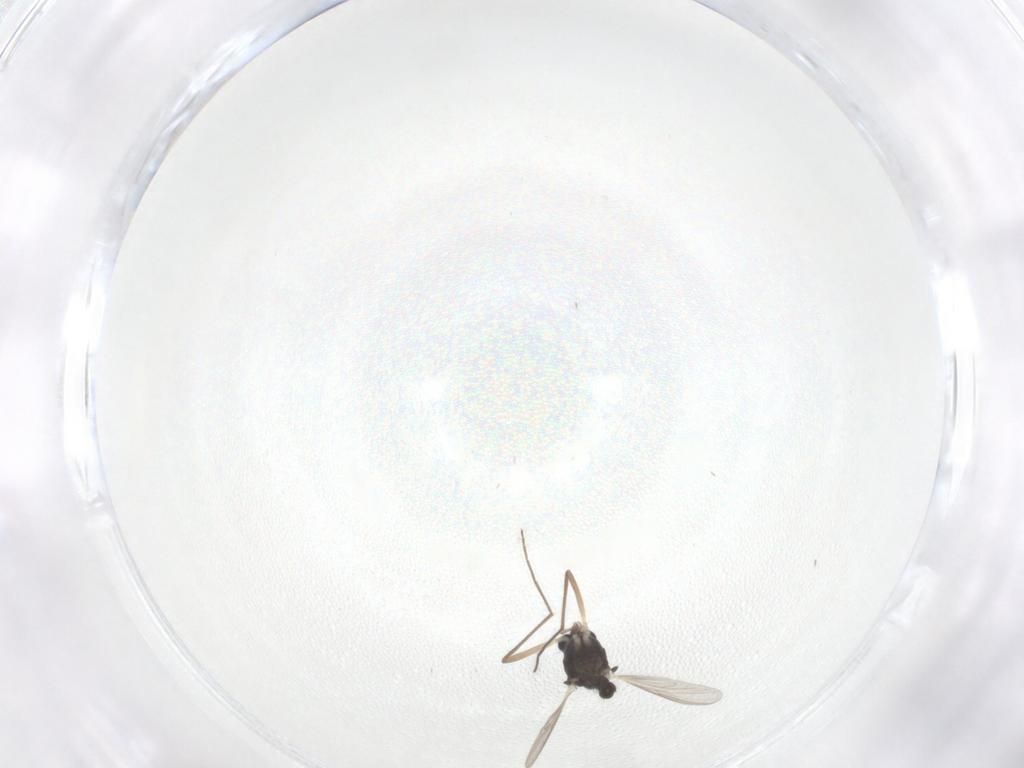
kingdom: Animalia
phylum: Arthropoda
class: Insecta
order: Diptera
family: Chironomidae
